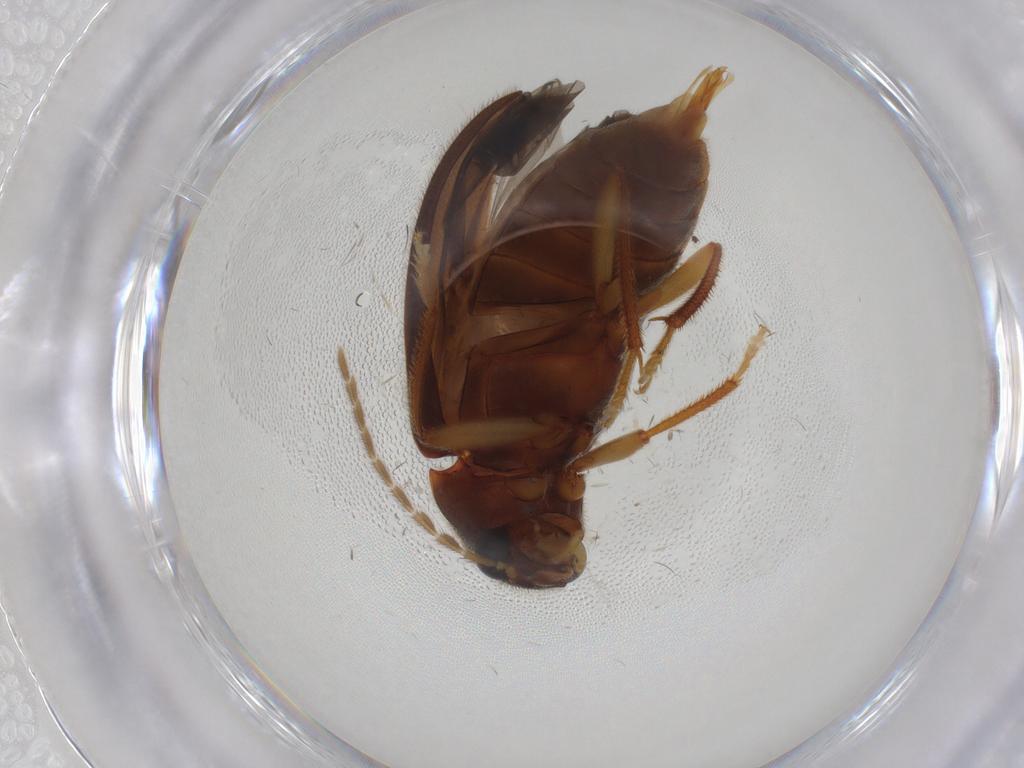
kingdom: Animalia
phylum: Arthropoda
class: Insecta
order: Coleoptera
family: Ptilodactylidae
